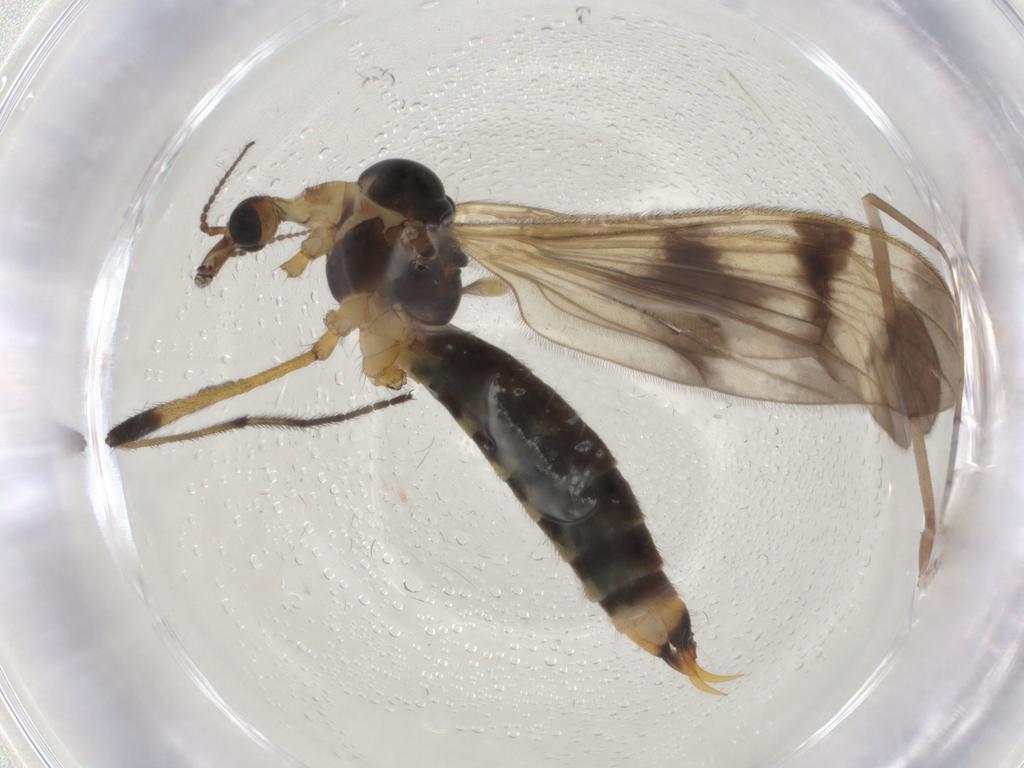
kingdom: Animalia
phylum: Arthropoda
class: Insecta
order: Diptera
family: Limoniidae
